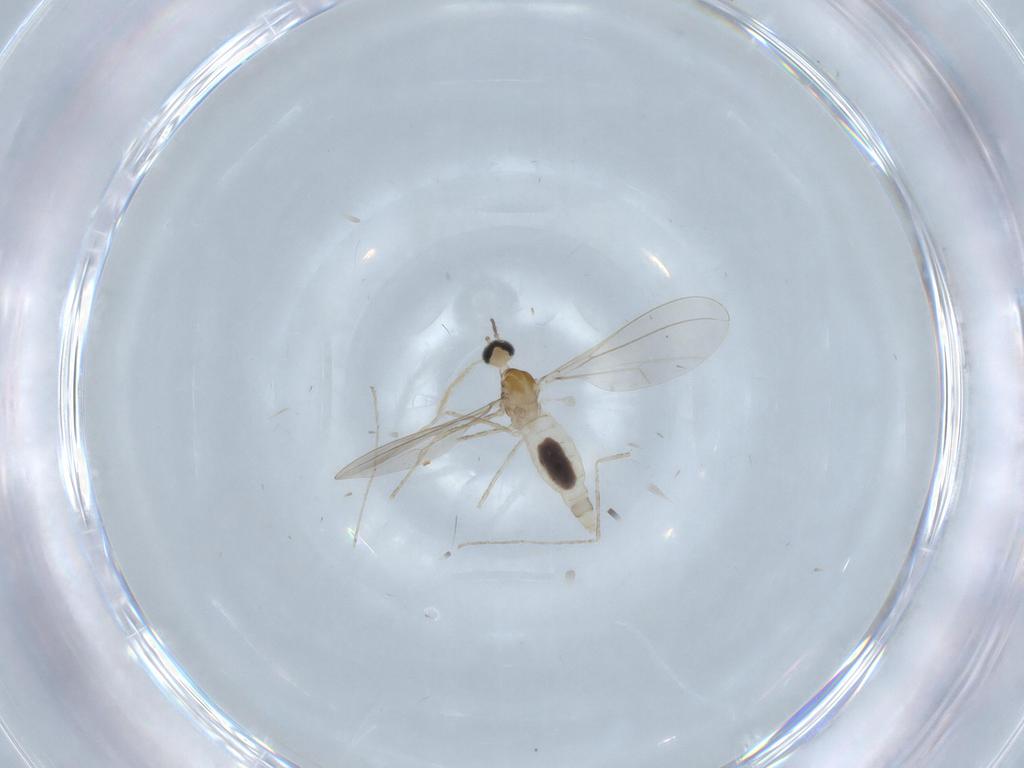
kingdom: Animalia
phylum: Arthropoda
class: Insecta
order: Diptera
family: Cecidomyiidae
